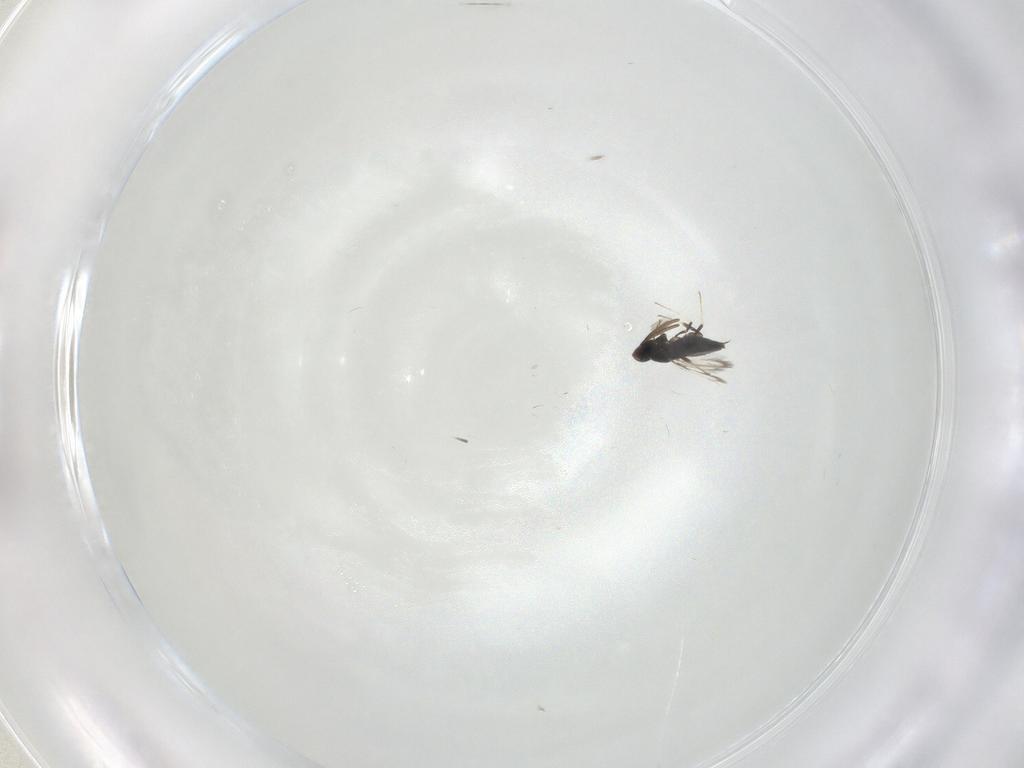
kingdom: Animalia
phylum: Arthropoda
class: Insecta
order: Hymenoptera
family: Signiphoridae
